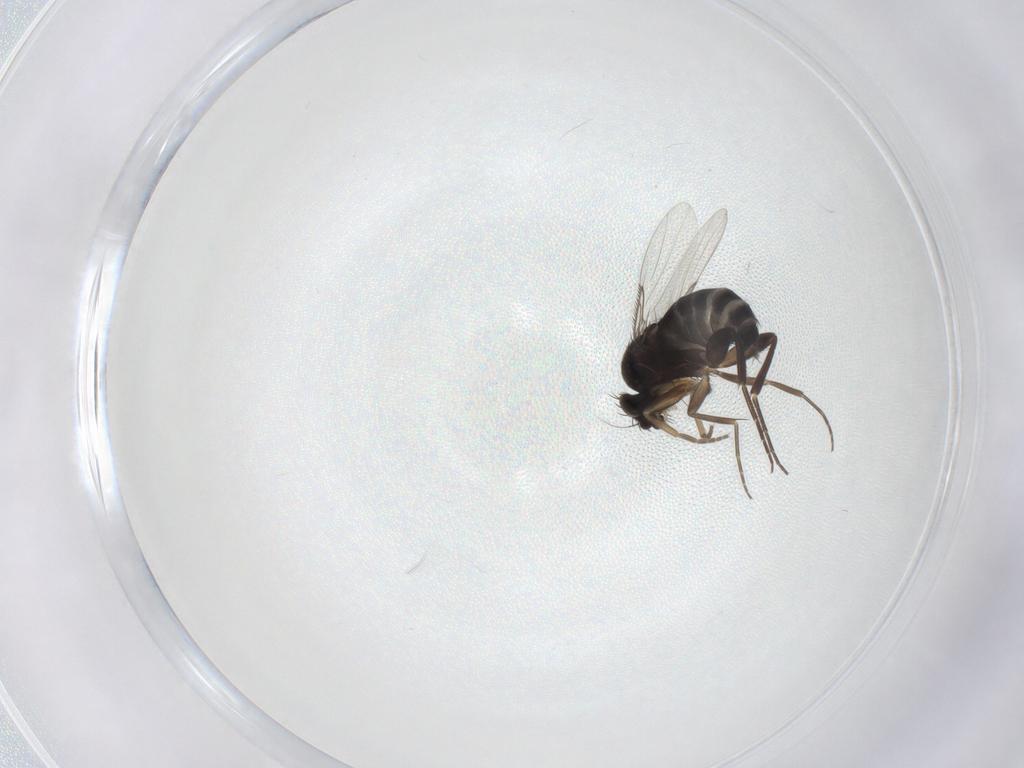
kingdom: Animalia
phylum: Arthropoda
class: Insecta
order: Diptera
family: Phoridae
